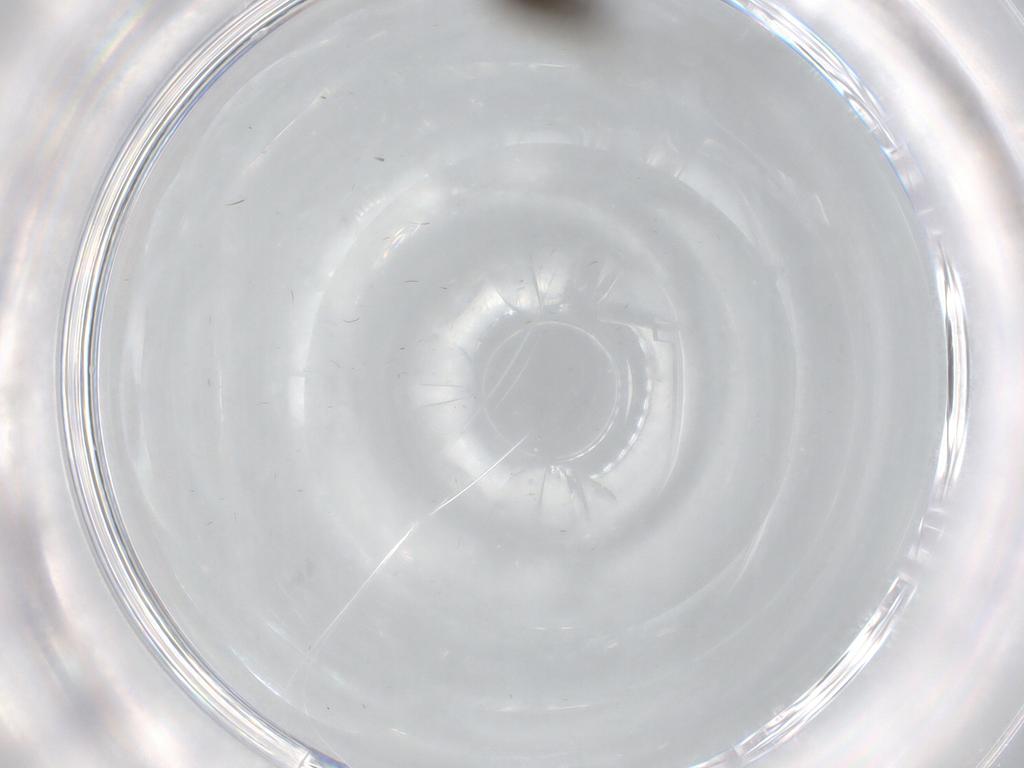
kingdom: Animalia
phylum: Arthropoda
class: Insecta
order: Diptera
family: Sciaridae
